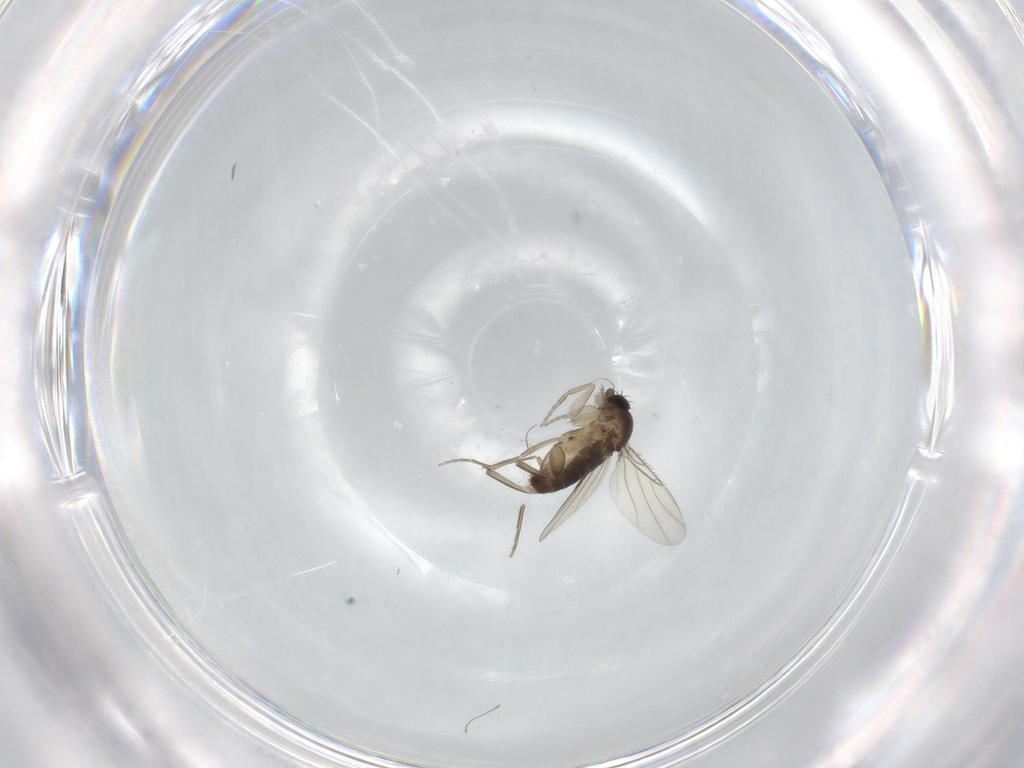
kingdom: Animalia
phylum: Arthropoda
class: Insecta
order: Diptera
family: Phoridae
